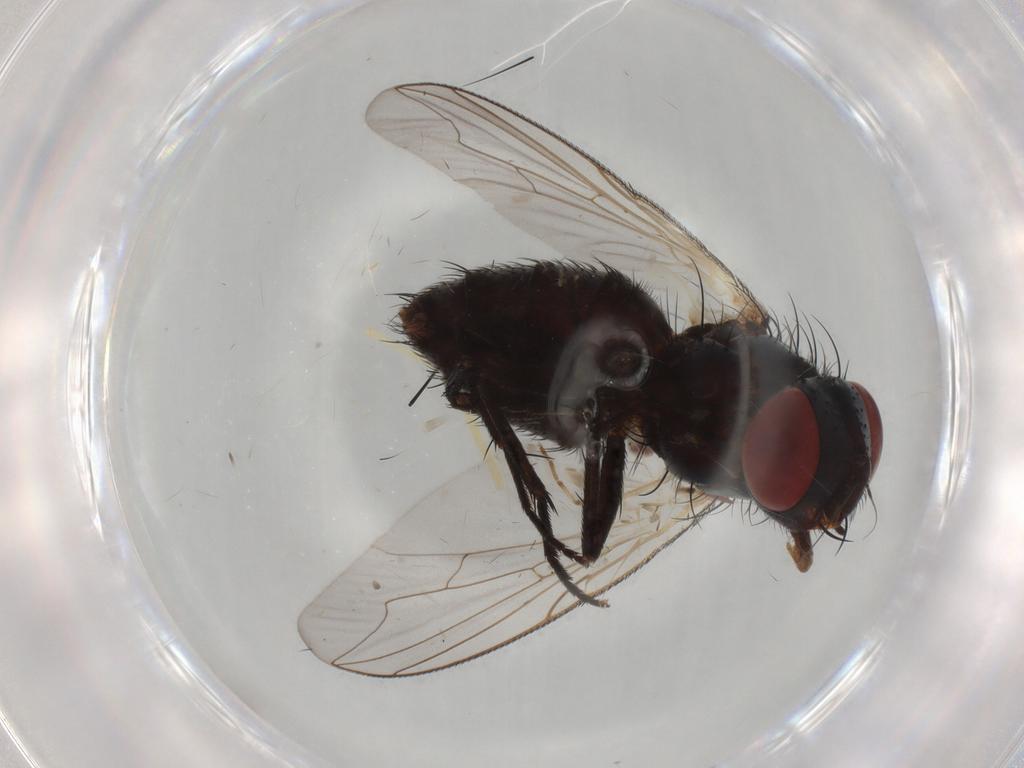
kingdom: Animalia
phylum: Arthropoda
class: Insecta
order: Diptera
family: Sarcophagidae
